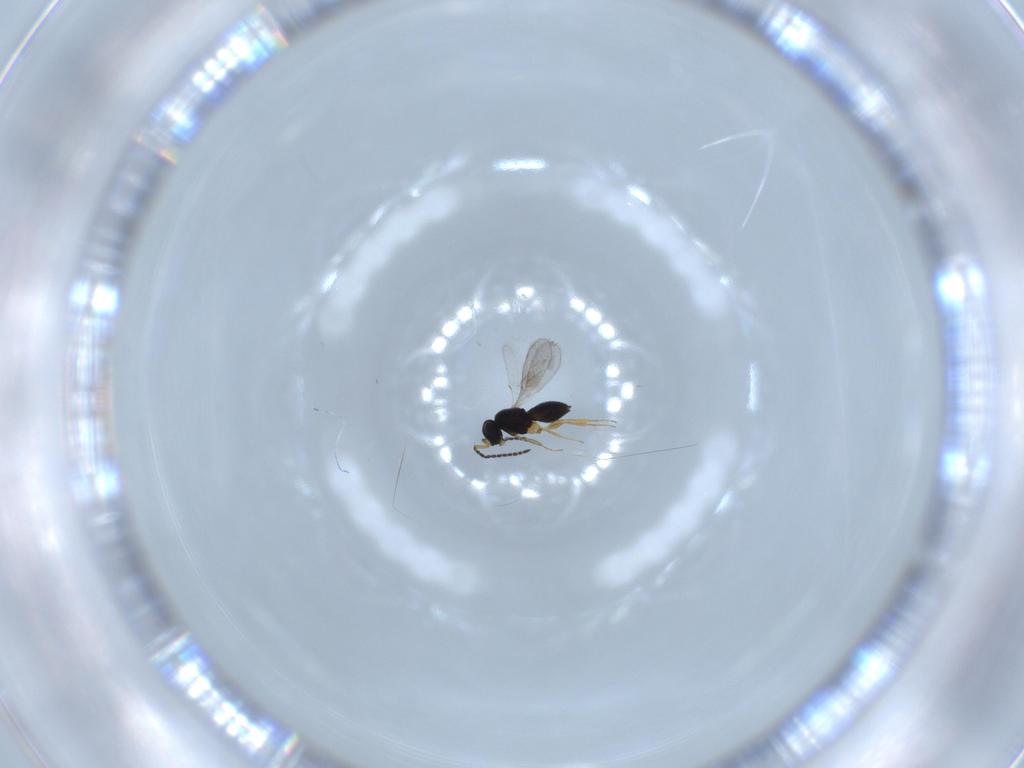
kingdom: Animalia
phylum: Arthropoda
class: Insecta
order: Hymenoptera
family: Scelionidae
